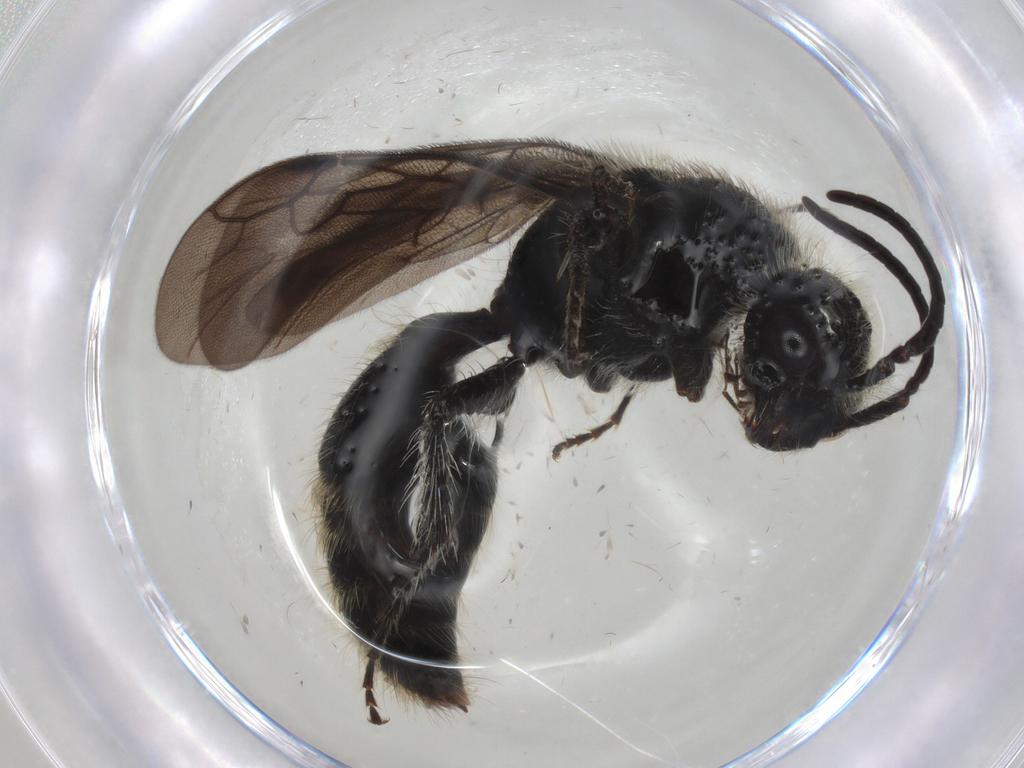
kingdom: Animalia
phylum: Arthropoda
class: Insecta
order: Hymenoptera
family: Mutillidae
